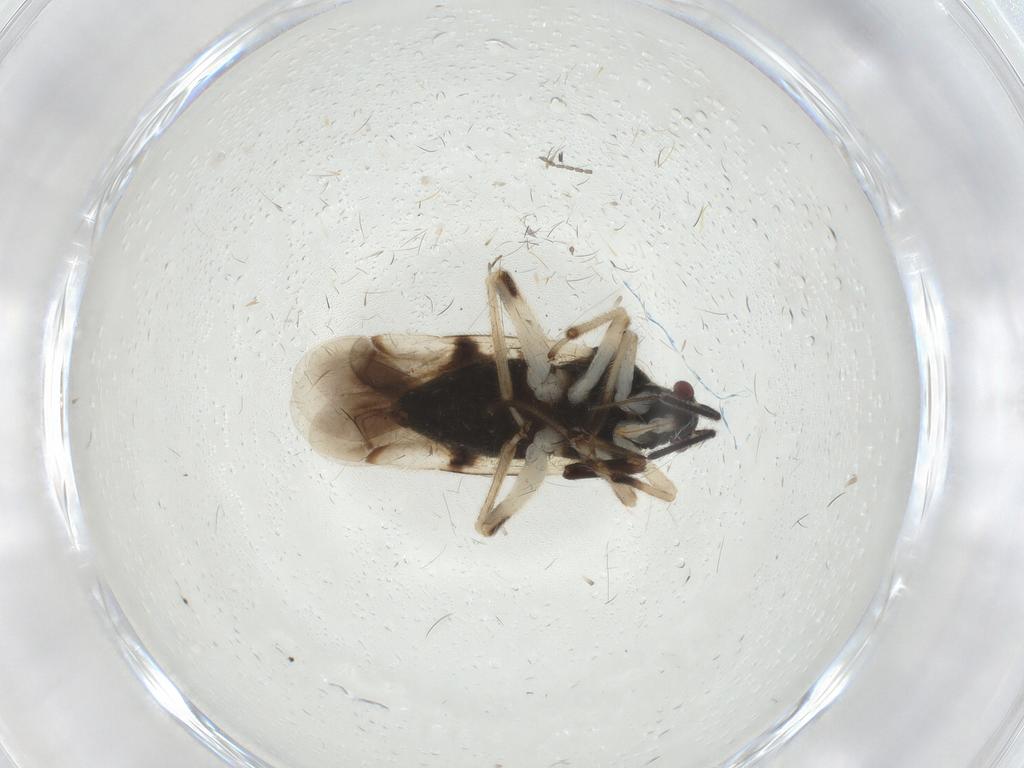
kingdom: Animalia
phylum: Arthropoda
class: Insecta
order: Hemiptera
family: Miridae
